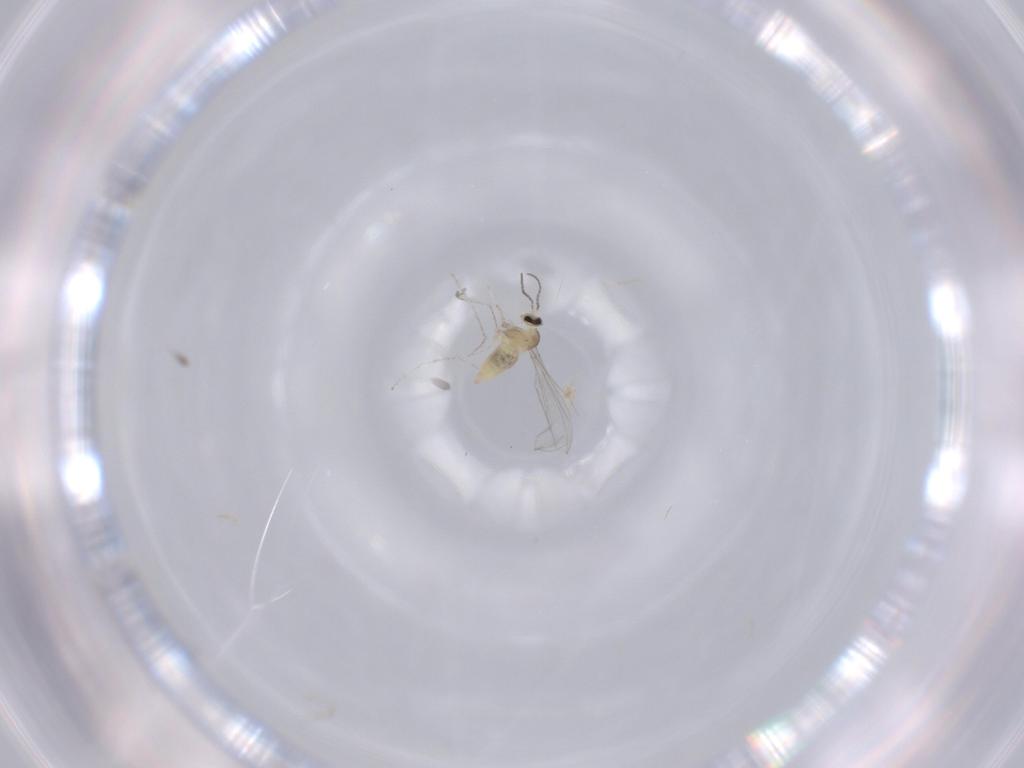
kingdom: Animalia
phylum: Arthropoda
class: Insecta
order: Diptera
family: Cecidomyiidae
